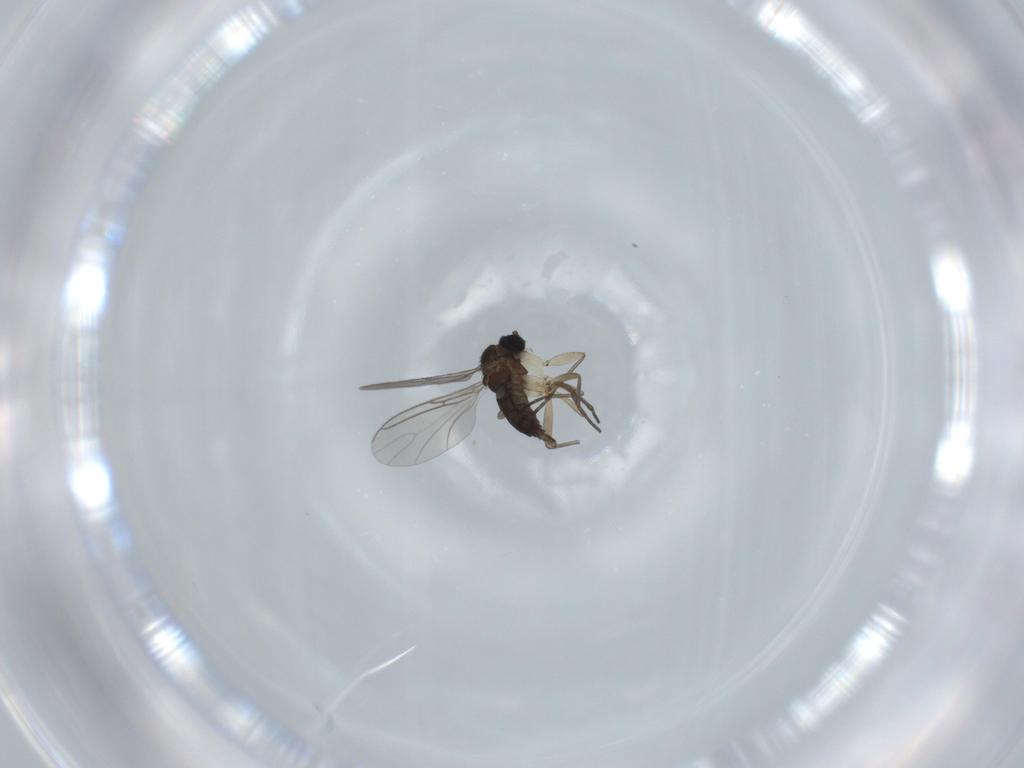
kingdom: Animalia
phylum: Arthropoda
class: Insecta
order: Diptera
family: Sciaridae
